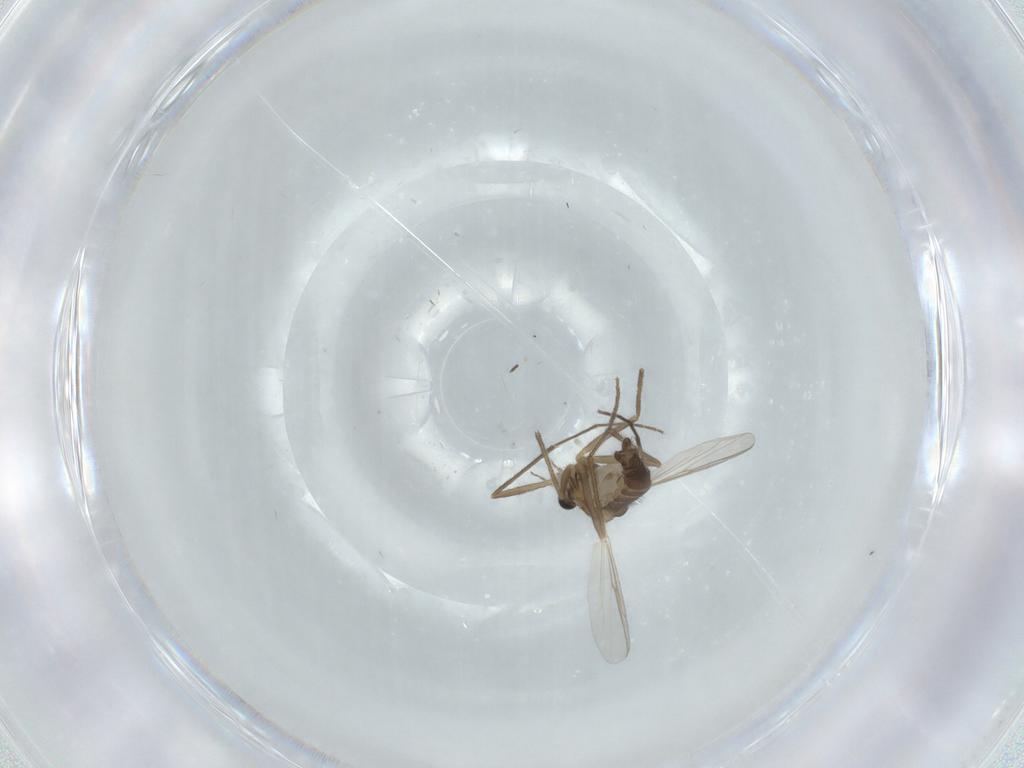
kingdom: Animalia
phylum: Arthropoda
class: Insecta
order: Diptera
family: Chironomidae
